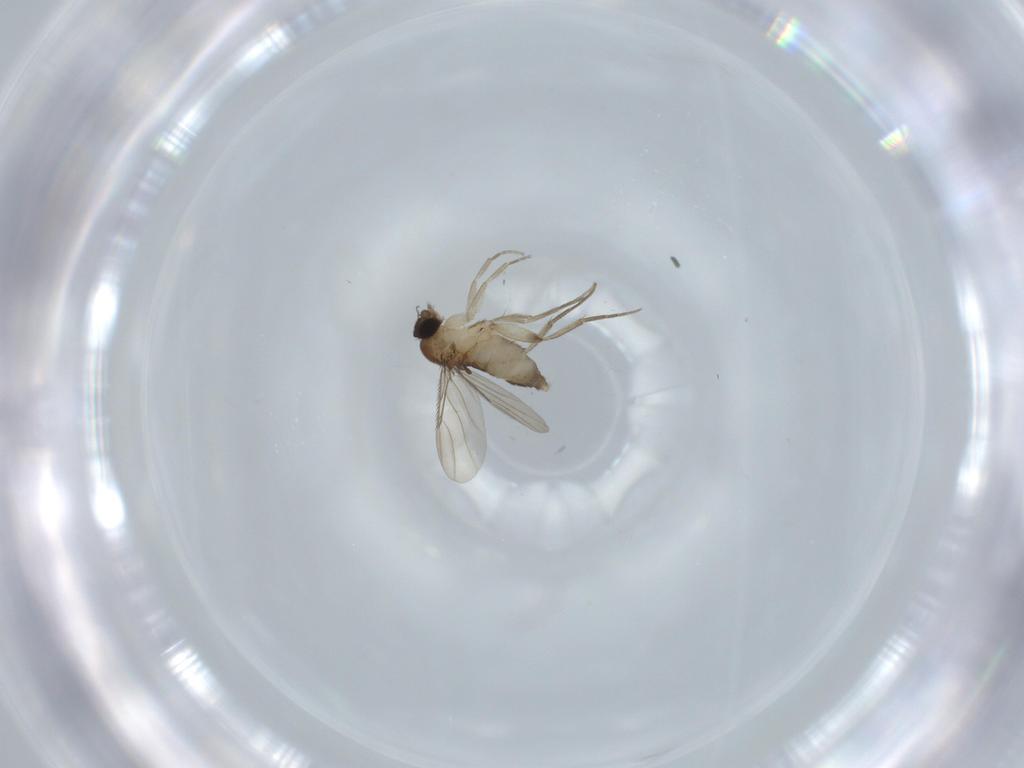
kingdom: Animalia
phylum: Arthropoda
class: Insecta
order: Diptera
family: Phoridae
